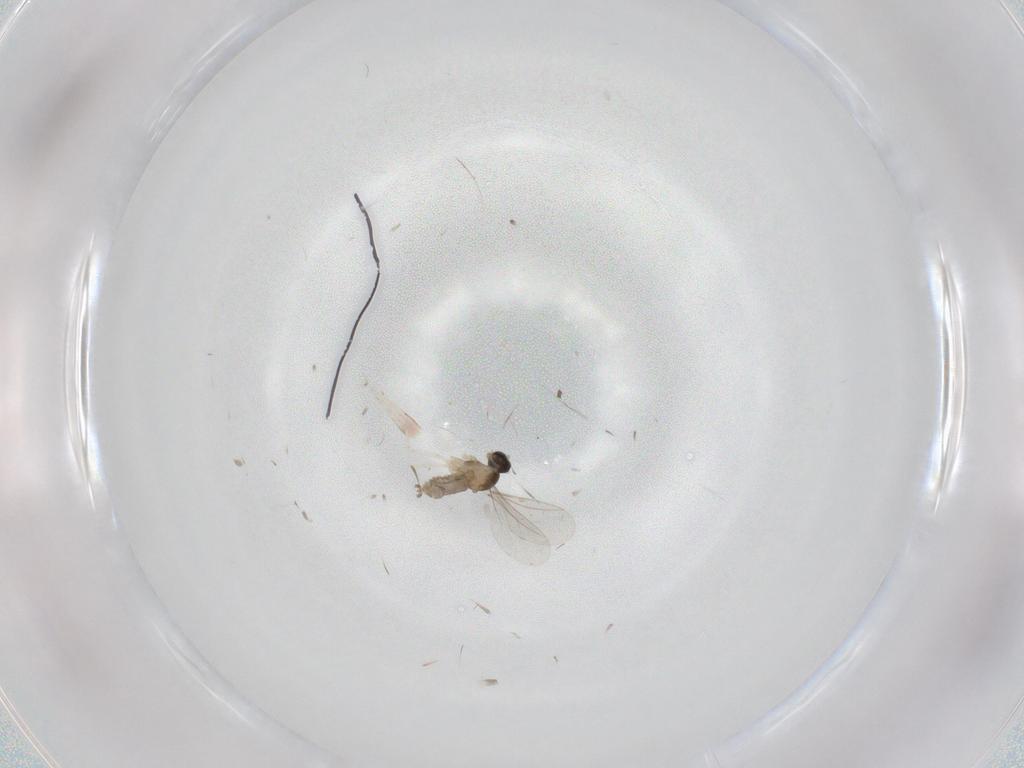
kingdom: Animalia
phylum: Arthropoda
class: Insecta
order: Diptera
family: Cecidomyiidae
